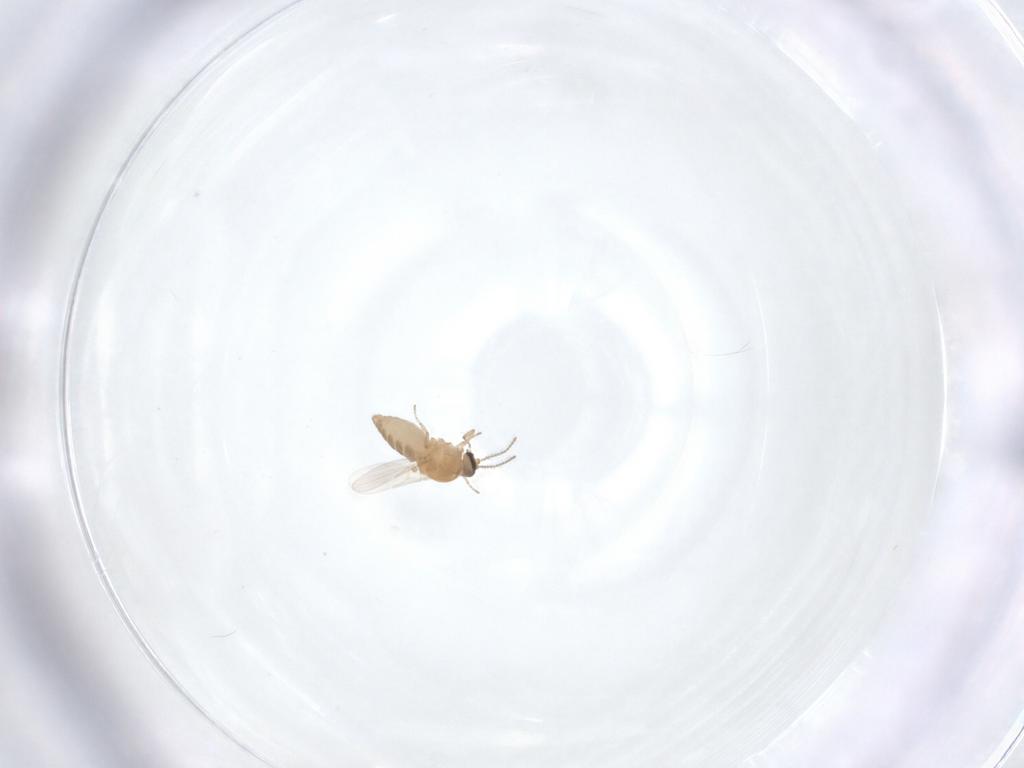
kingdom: Animalia
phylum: Arthropoda
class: Insecta
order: Diptera
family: Ceratopogonidae
